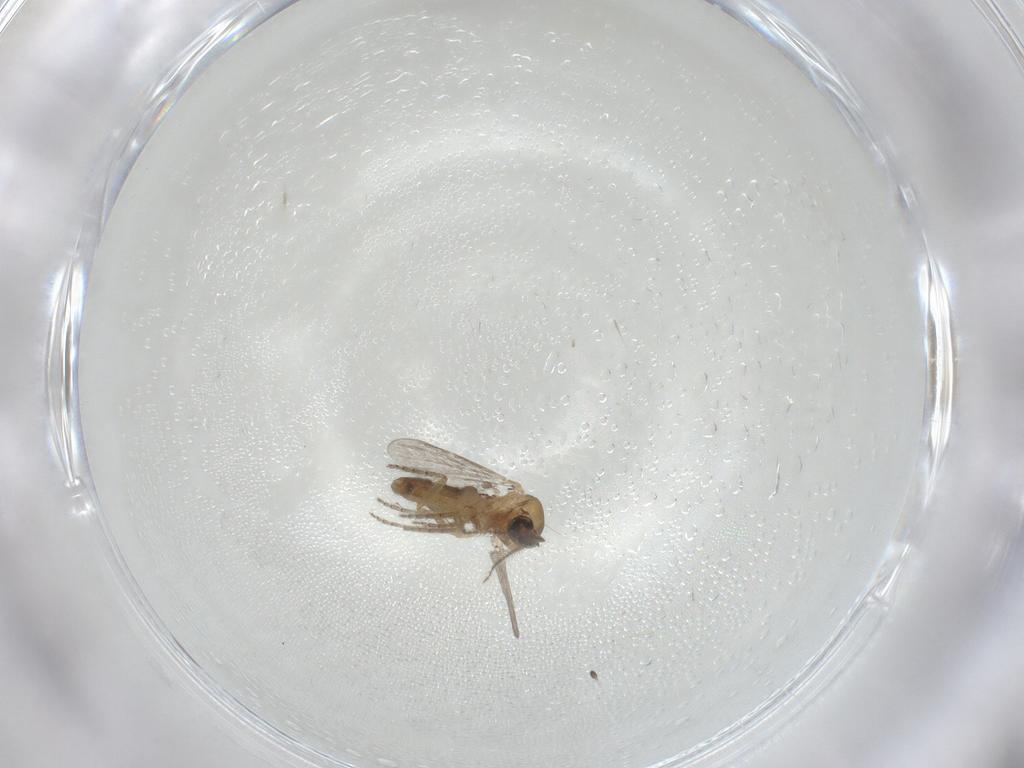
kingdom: Animalia
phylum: Arthropoda
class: Insecta
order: Diptera
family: Ceratopogonidae
